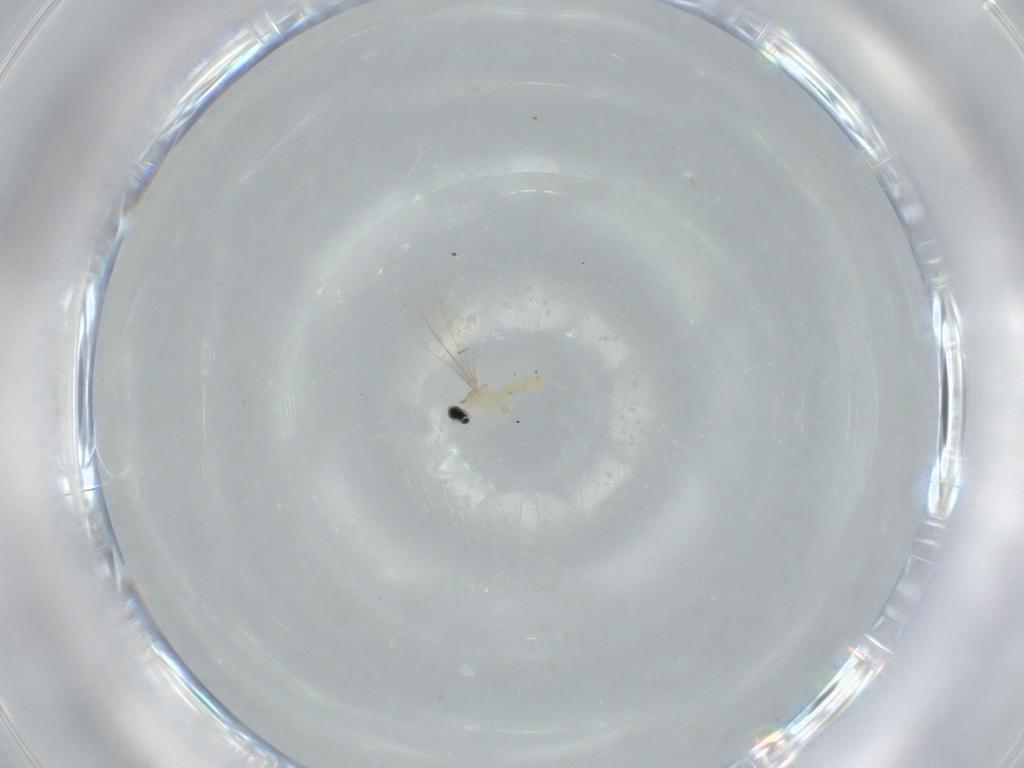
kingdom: Animalia
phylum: Arthropoda
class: Insecta
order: Diptera
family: Cecidomyiidae
